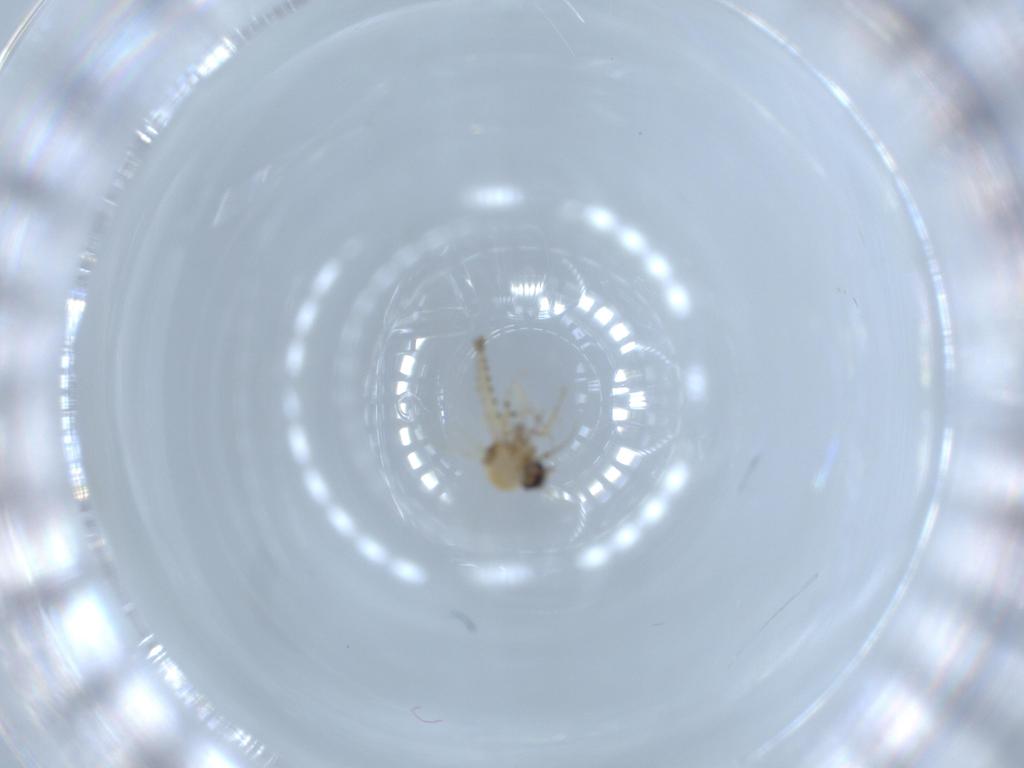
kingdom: Animalia
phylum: Arthropoda
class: Insecta
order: Diptera
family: Ceratopogonidae
